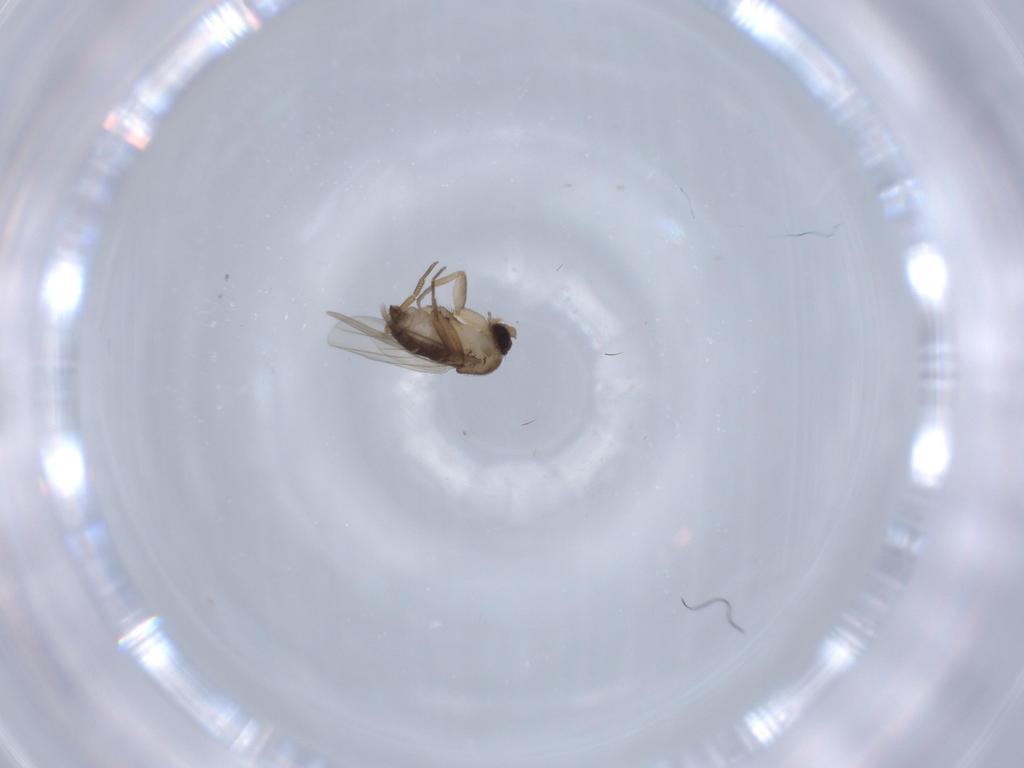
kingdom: Animalia
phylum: Arthropoda
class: Insecta
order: Diptera
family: Phoridae
